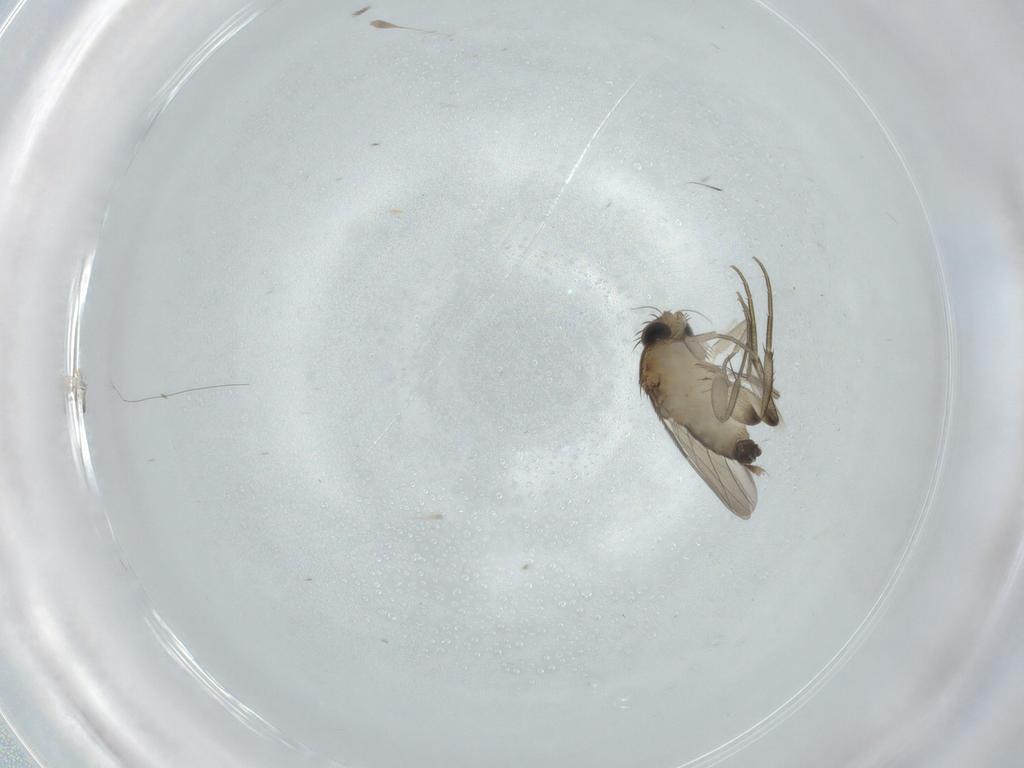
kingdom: Animalia
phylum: Arthropoda
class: Insecta
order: Diptera
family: Phoridae
